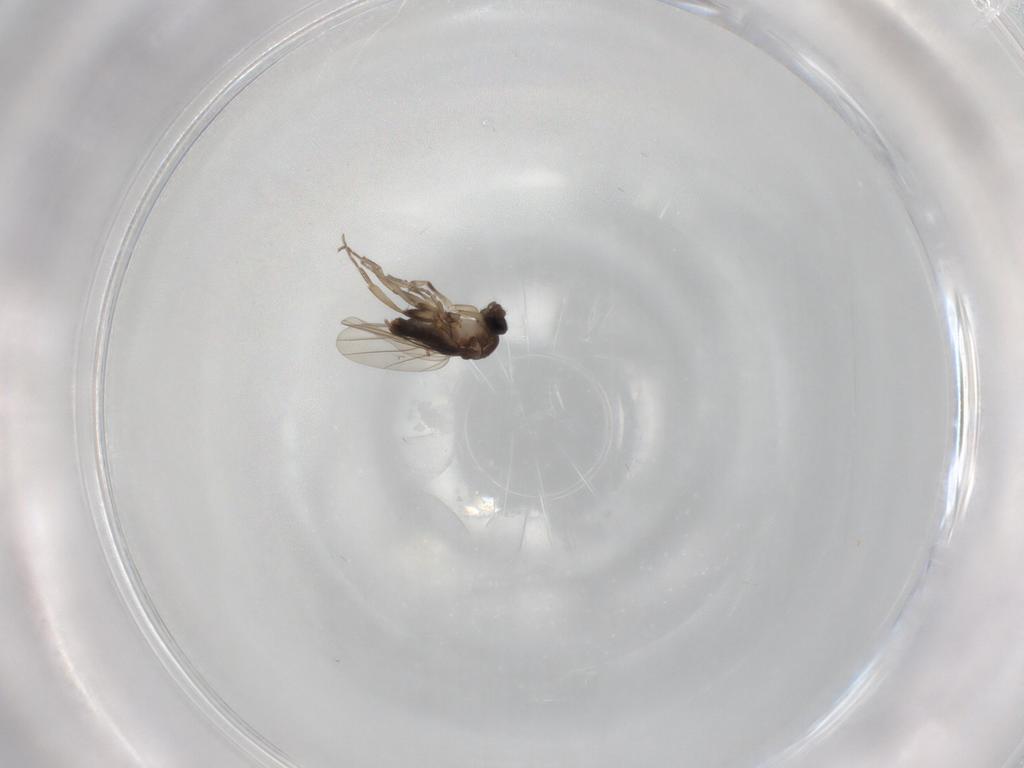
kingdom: Animalia
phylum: Arthropoda
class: Insecta
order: Diptera
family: Phoridae
